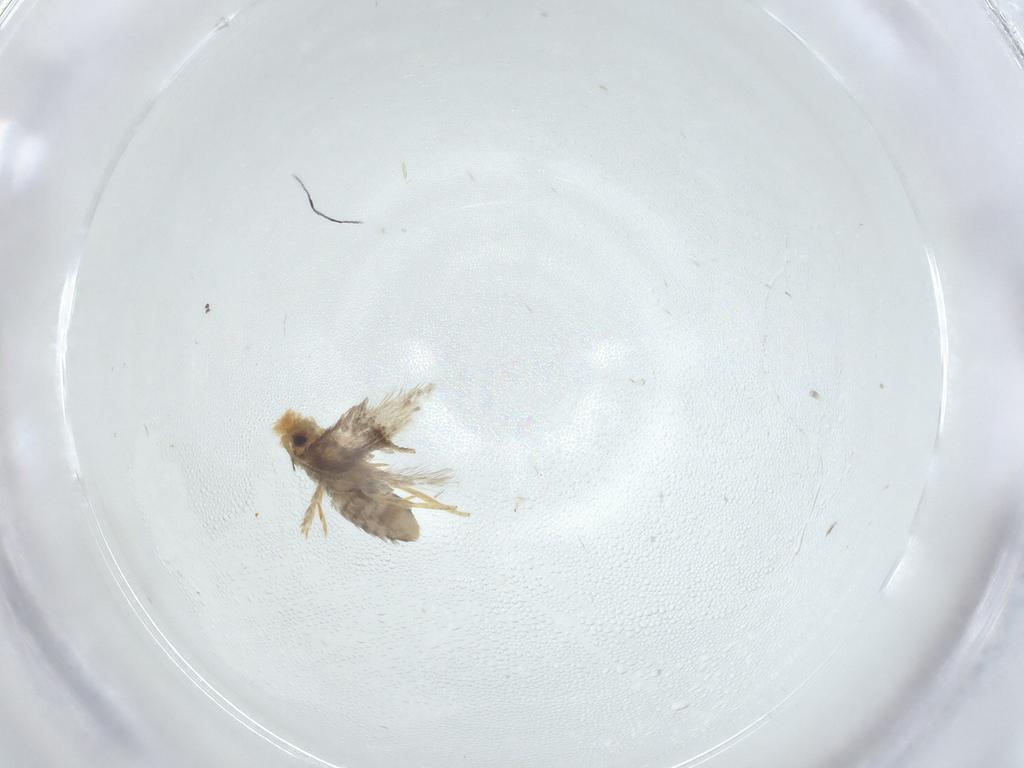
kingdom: Animalia
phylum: Arthropoda
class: Insecta
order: Lepidoptera
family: Nepticulidae
